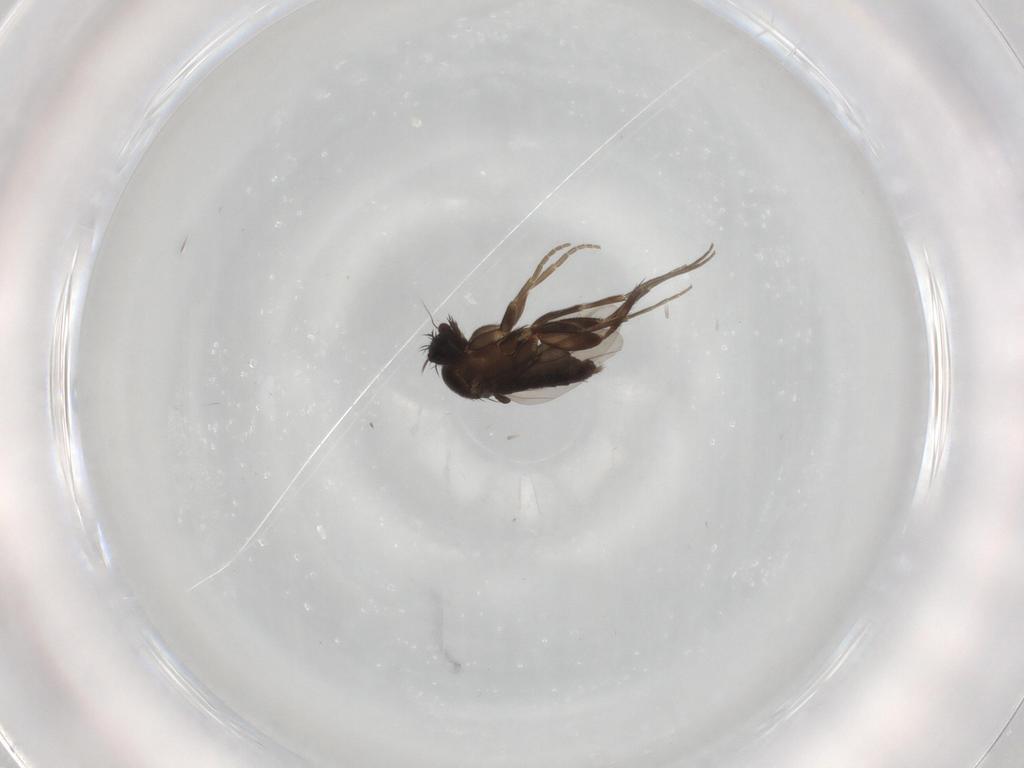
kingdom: Animalia
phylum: Arthropoda
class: Insecta
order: Diptera
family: Phoridae
